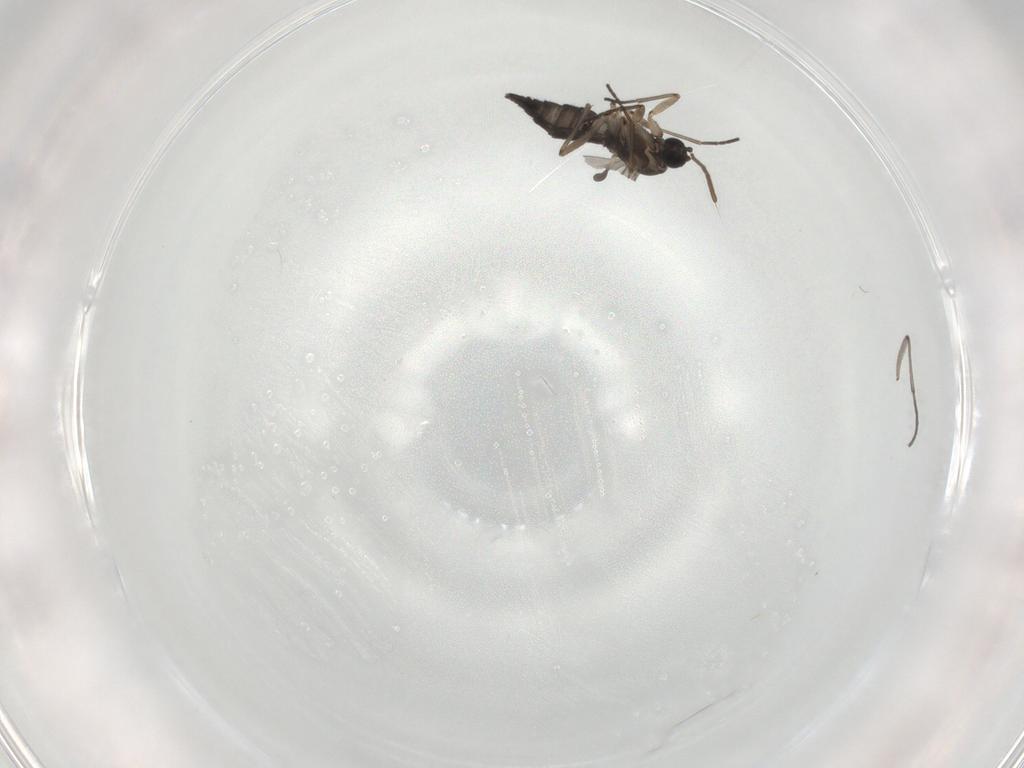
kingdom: Animalia
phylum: Arthropoda
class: Insecta
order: Diptera
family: Sciaridae
